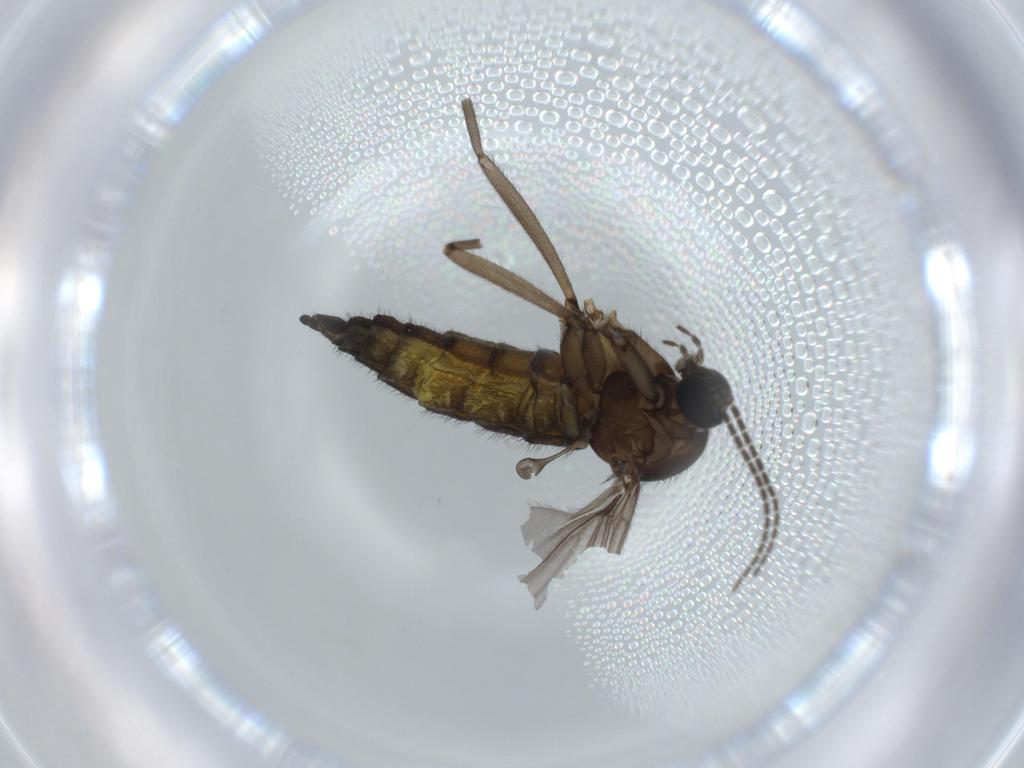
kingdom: Animalia
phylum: Arthropoda
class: Insecta
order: Diptera
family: Sciaridae
